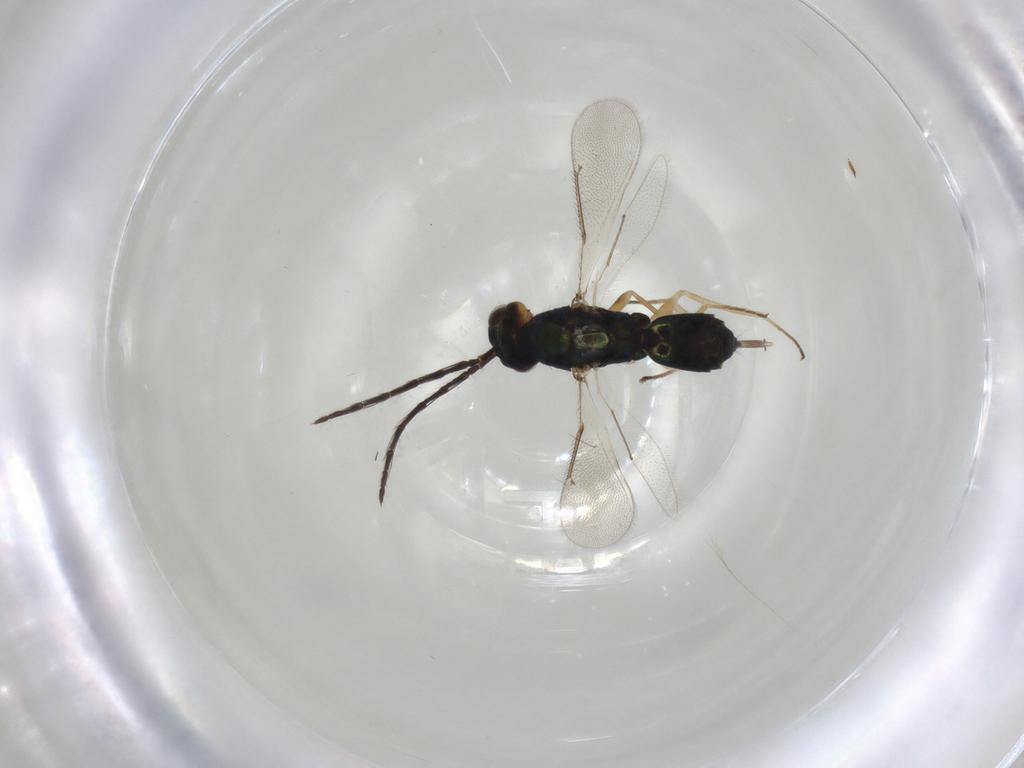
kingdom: Animalia
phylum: Arthropoda
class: Insecta
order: Hymenoptera
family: Eulophidae
